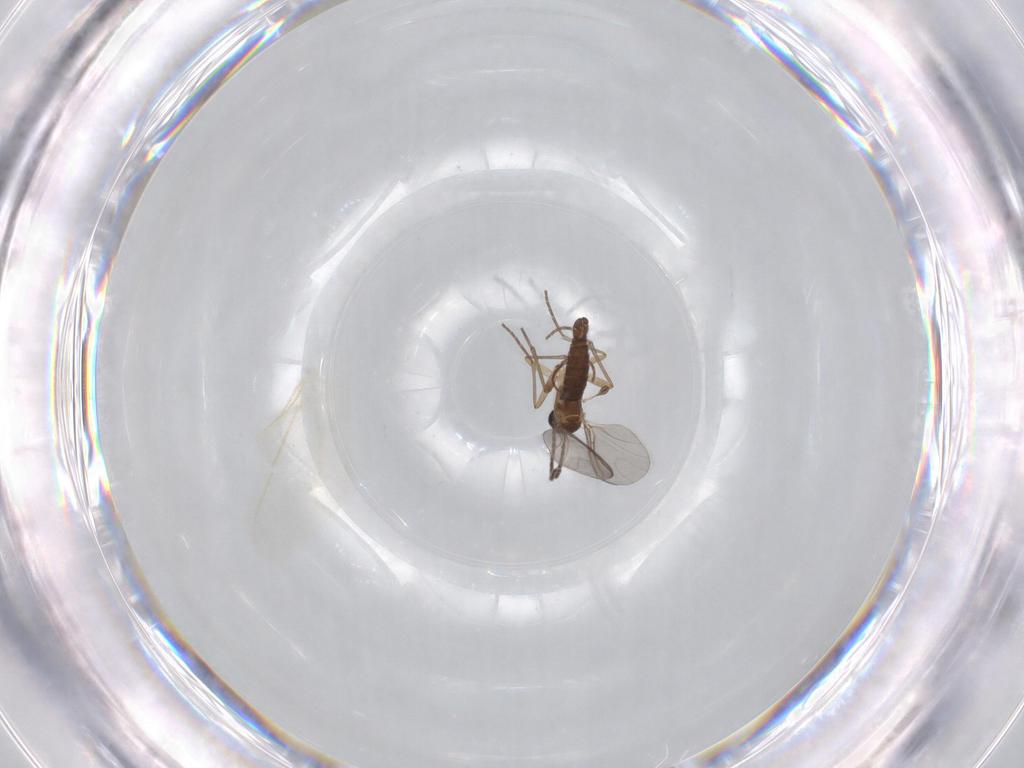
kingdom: Animalia
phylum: Arthropoda
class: Insecta
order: Diptera
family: Sciaridae
